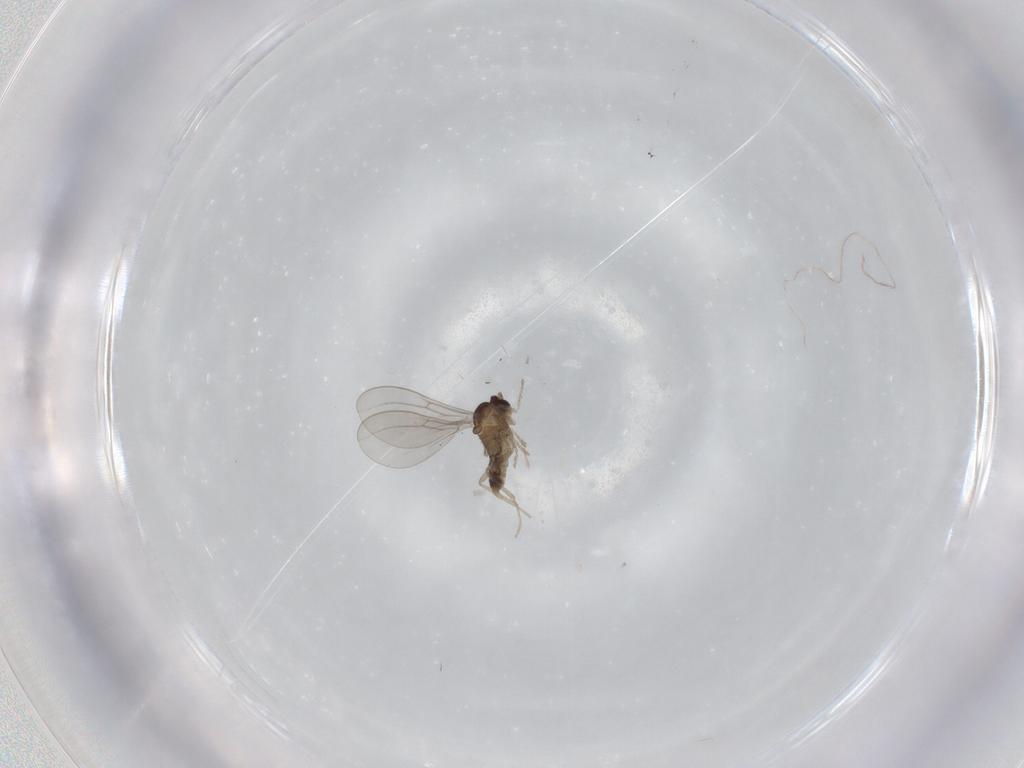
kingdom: Animalia
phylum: Arthropoda
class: Insecta
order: Diptera
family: Cecidomyiidae
